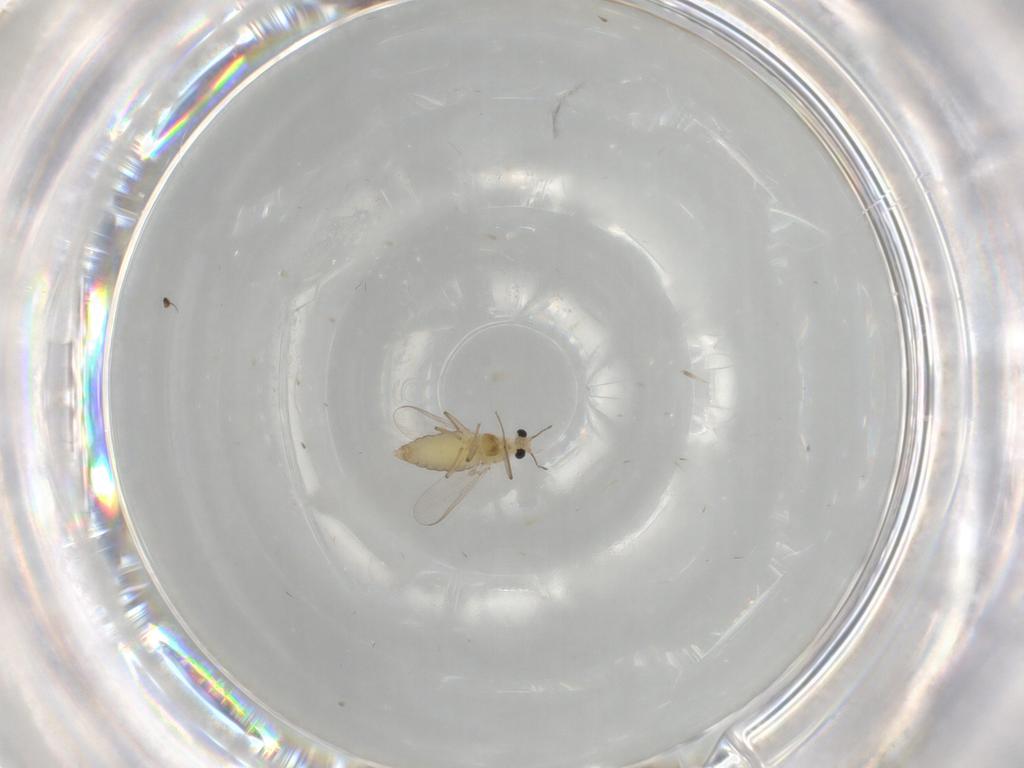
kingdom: Animalia
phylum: Arthropoda
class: Insecta
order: Diptera
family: Chironomidae
